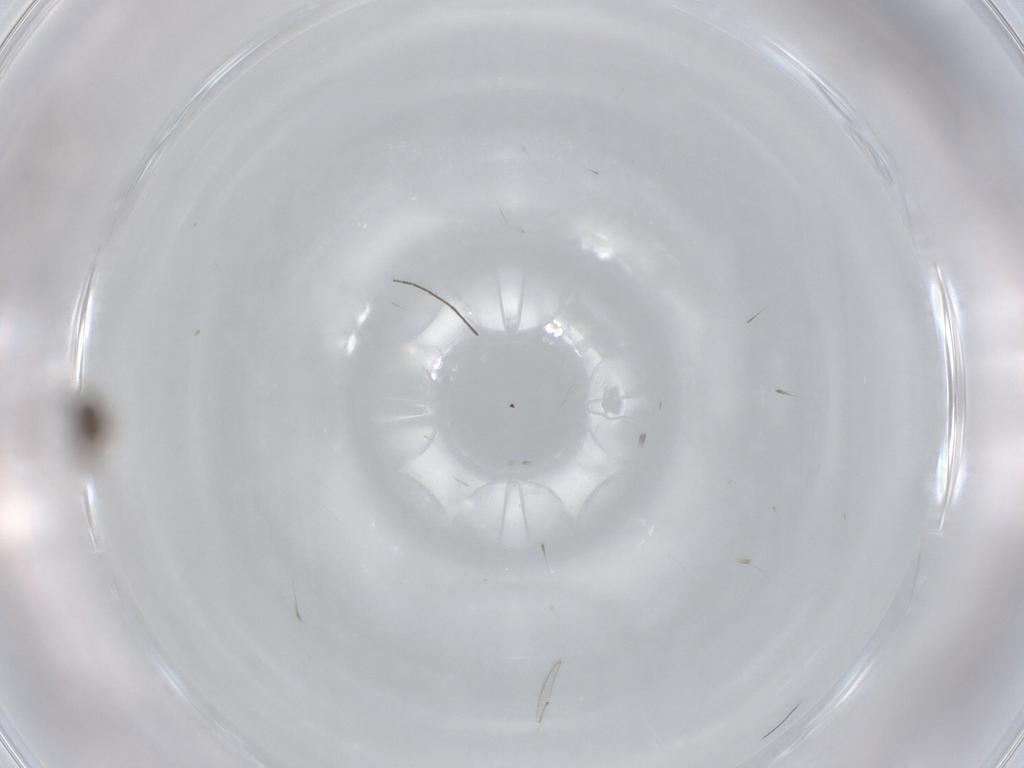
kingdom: Animalia
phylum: Arthropoda
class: Insecta
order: Hymenoptera
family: Eulophidae
